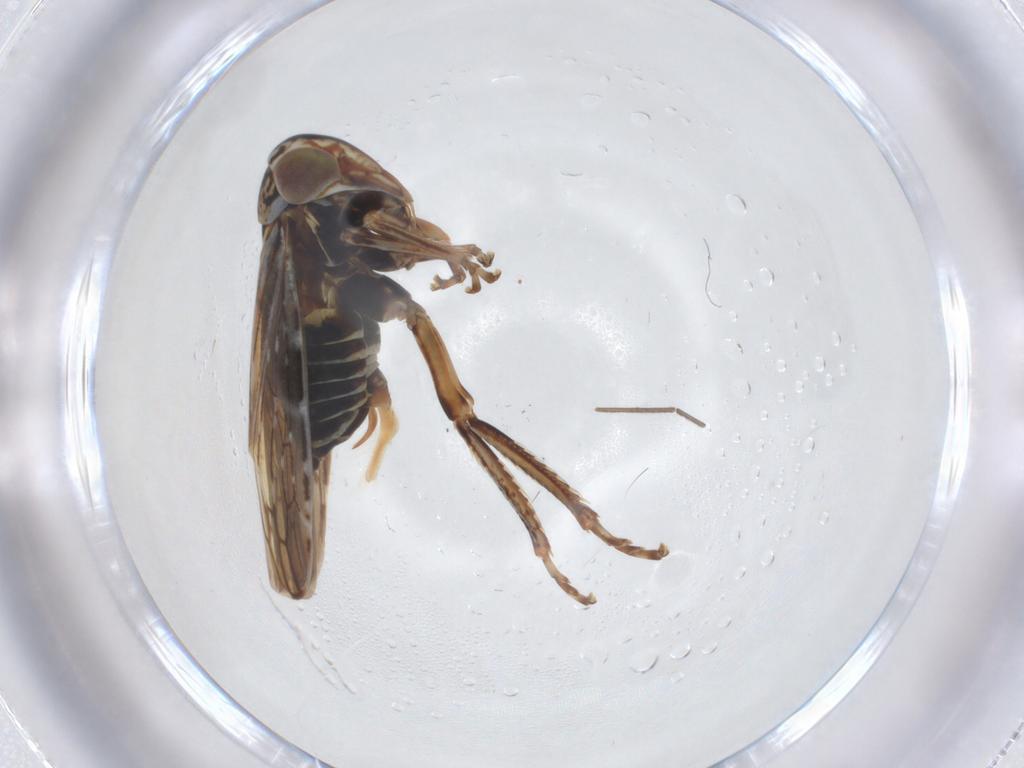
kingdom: Animalia
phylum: Arthropoda
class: Insecta
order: Hemiptera
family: Cicadellidae
